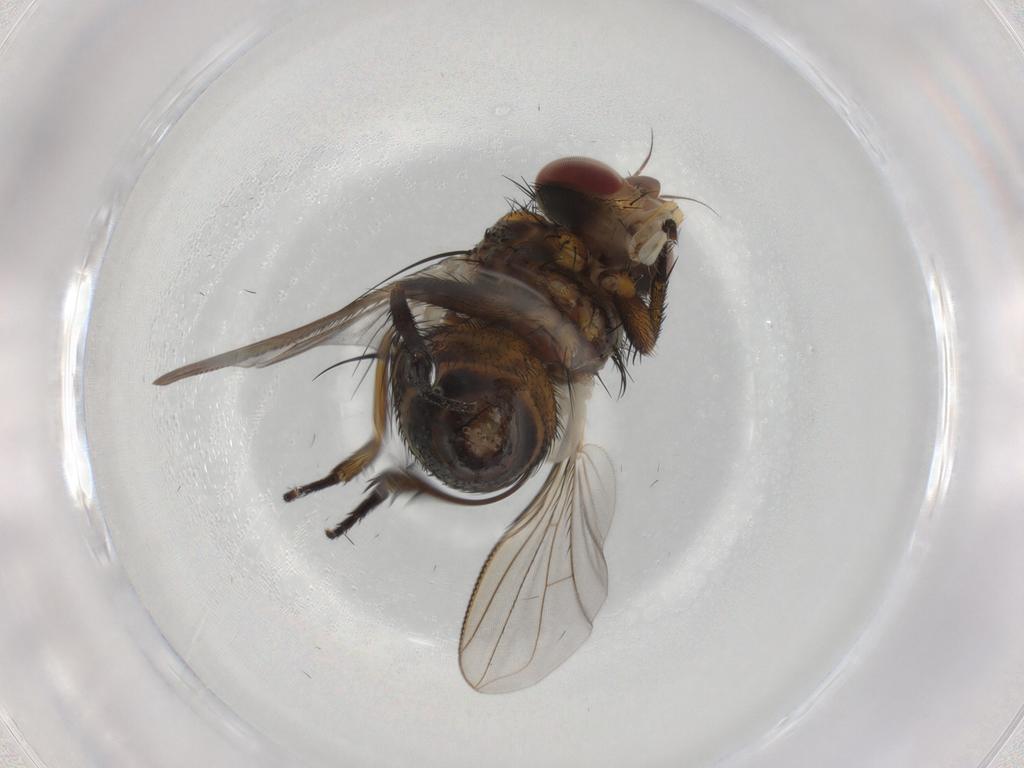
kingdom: Animalia
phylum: Arthropoda
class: Insecta
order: Diptera
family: Tachinidae
